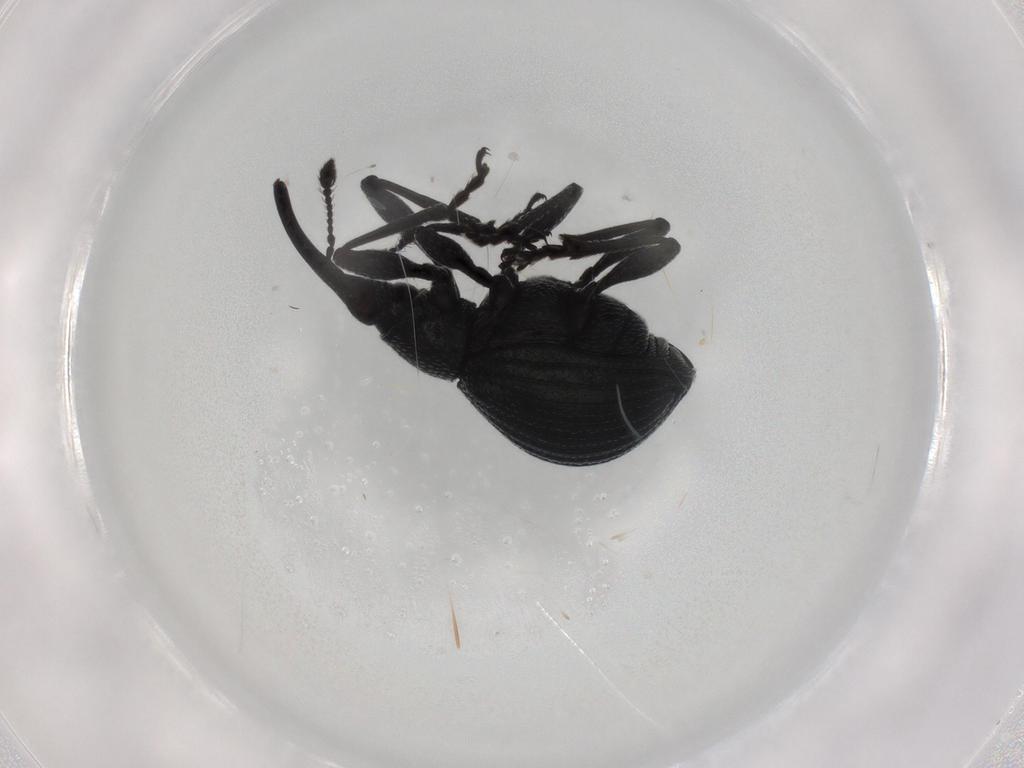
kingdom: Animalia
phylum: Arthropoda
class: Insecta
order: Coleoptera
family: Brentidae
